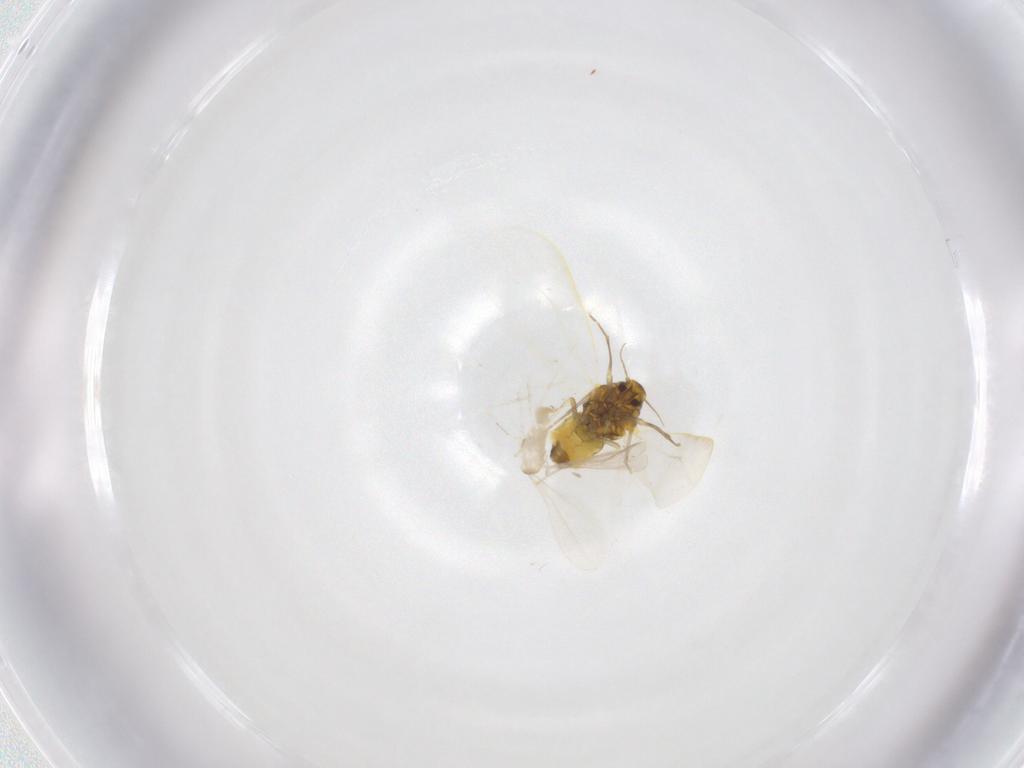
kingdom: Animalia
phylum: Arthropoda
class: Insecta
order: Diptera
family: Cecidomyiidae
